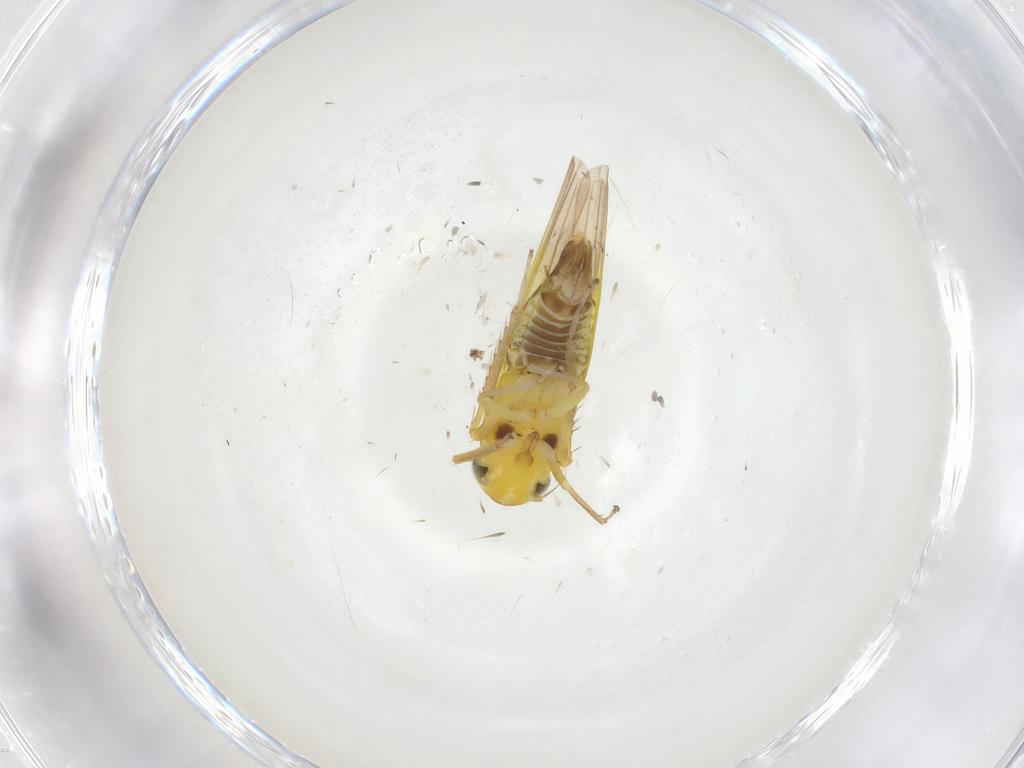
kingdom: Animalia
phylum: Arthropoda
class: Insecta
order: Hemiptera
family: Cicadellidae
